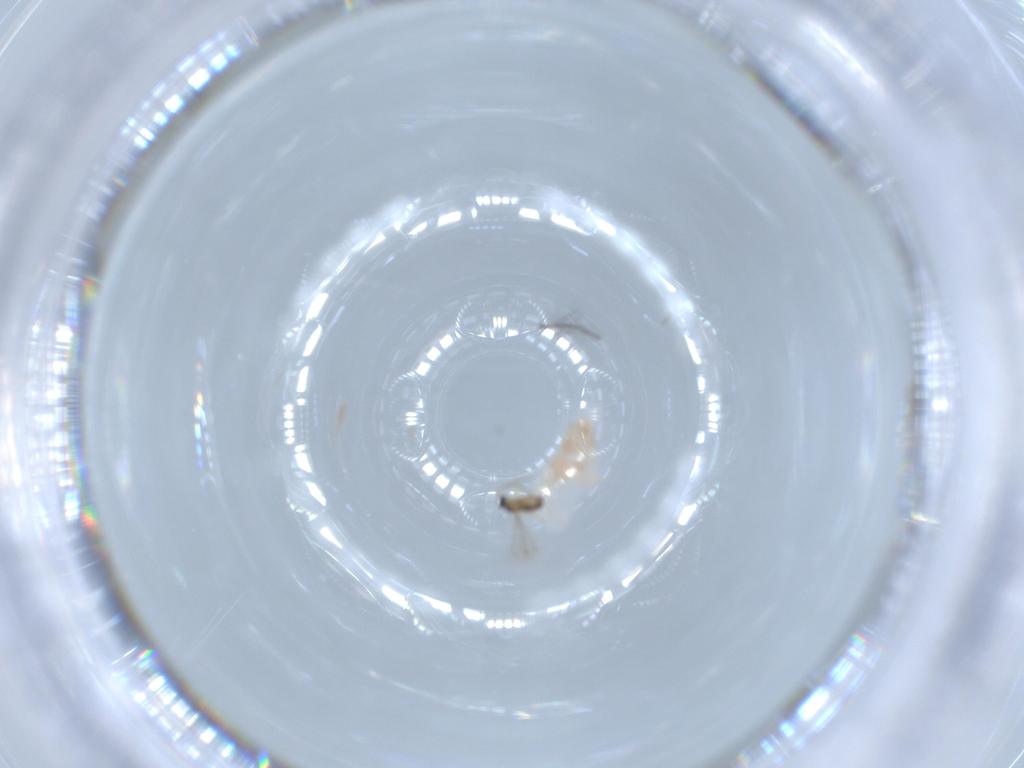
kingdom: Animalia
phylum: Arthropoda
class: Insecta
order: Hymenoptera
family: Mymaridae
